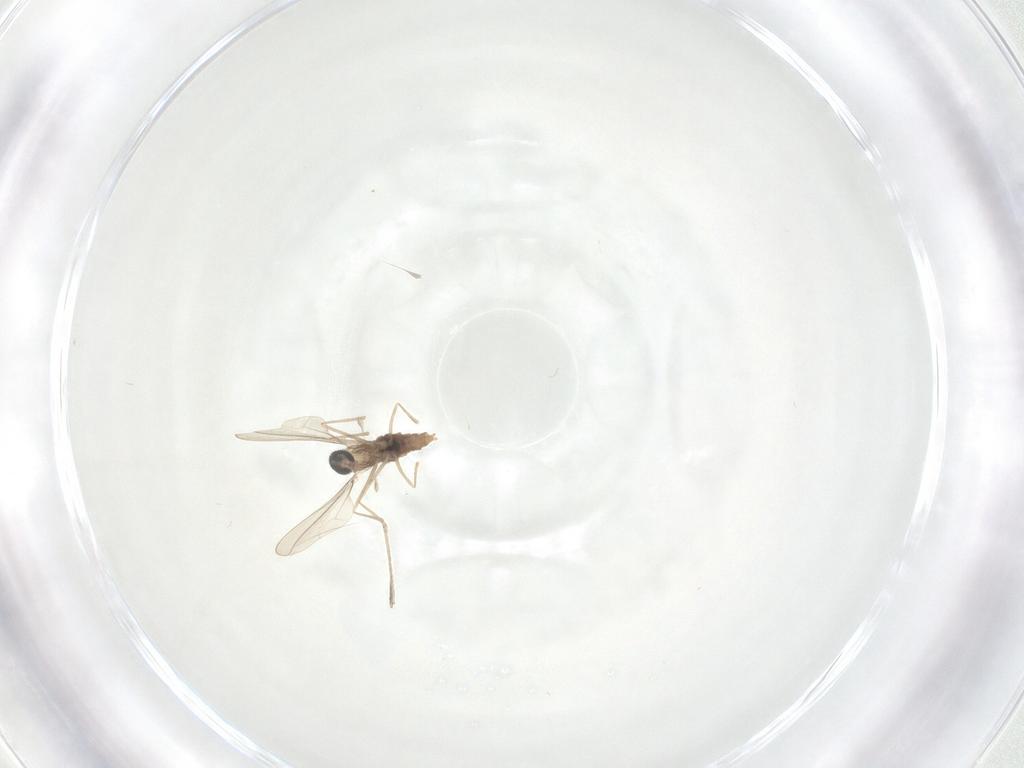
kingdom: Animalia
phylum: Arthropoda
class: Insecta
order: Diptera
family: Cecidomyiidae
